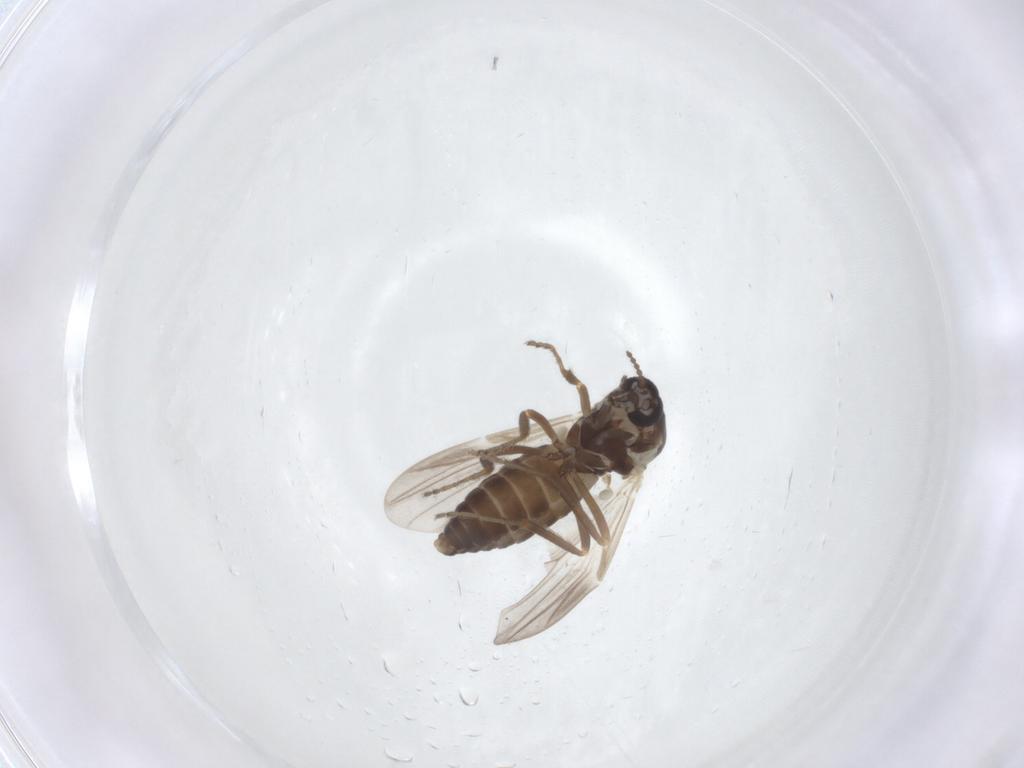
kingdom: Animalia
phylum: Arthropoda
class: Insecta
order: Diptera
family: Ceratopogonidae
